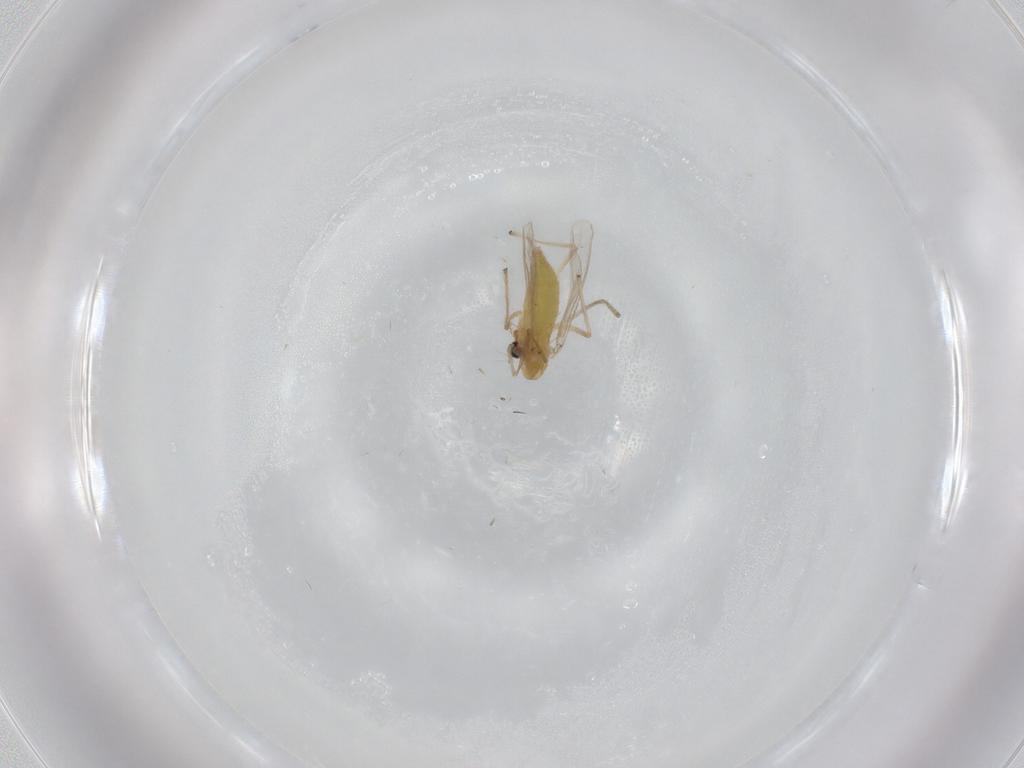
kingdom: Animalia
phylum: Arthropoda
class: Insecta
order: Diptera
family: Chironomidae
